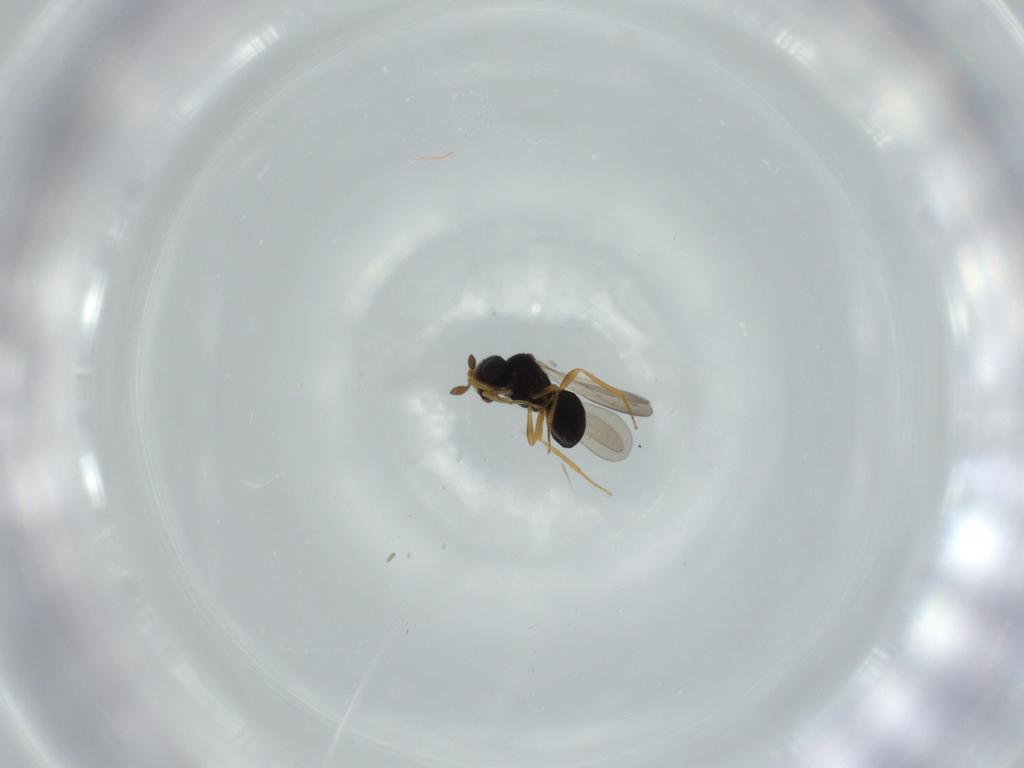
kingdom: Animalia
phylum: Arthropoda
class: Insecta
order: Hymenoptera
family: Scelionidae
